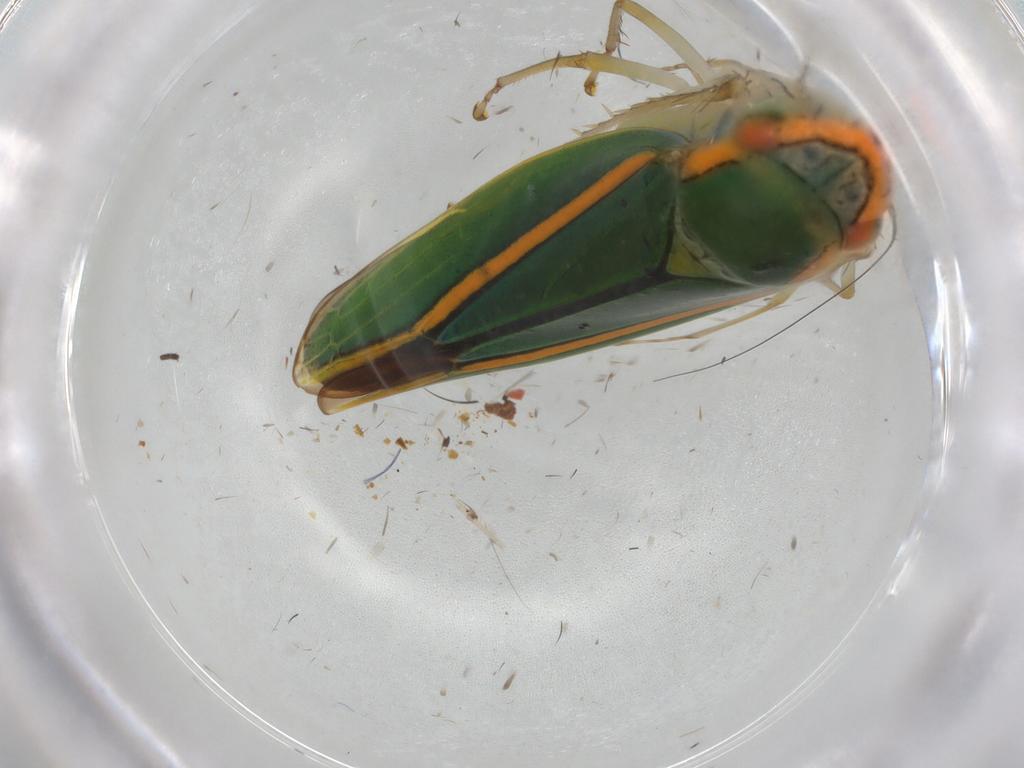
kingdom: Animalia
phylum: Arthropoda
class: Insecta
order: Hemiptera
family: Cicadellidae
